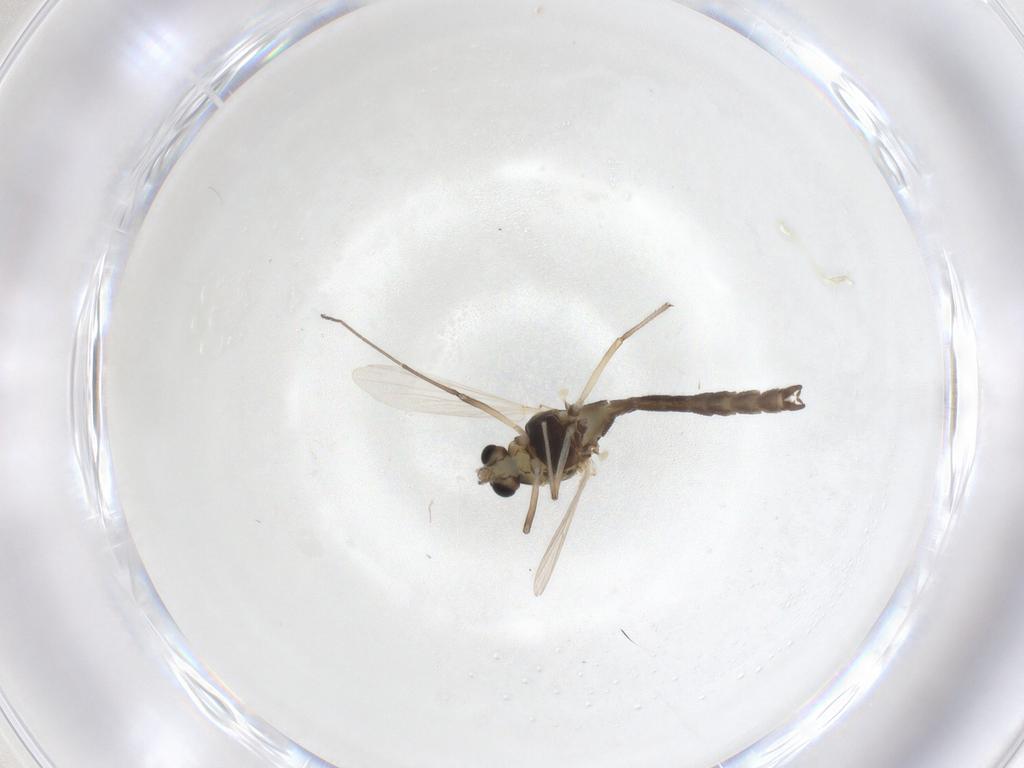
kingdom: Animalia
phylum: Arthropoda
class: Insecta
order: Diptera
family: Chironomidae
